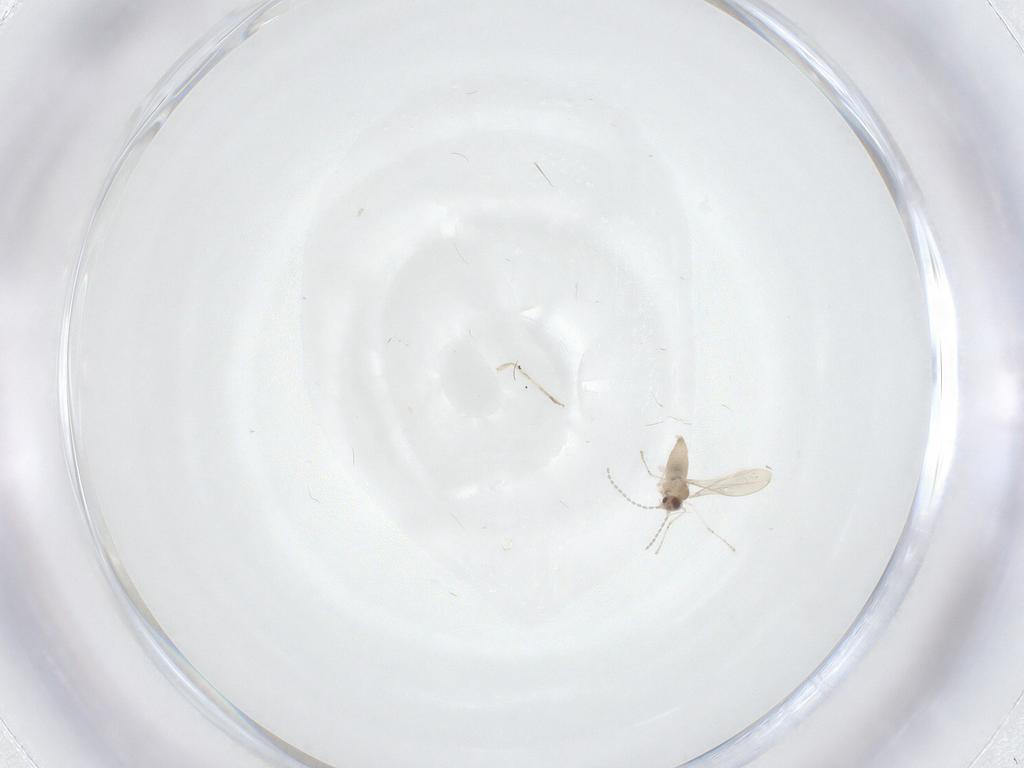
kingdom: Animalia
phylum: Arthropoda
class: Insecta
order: Diptera
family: Cecidomyiidae
